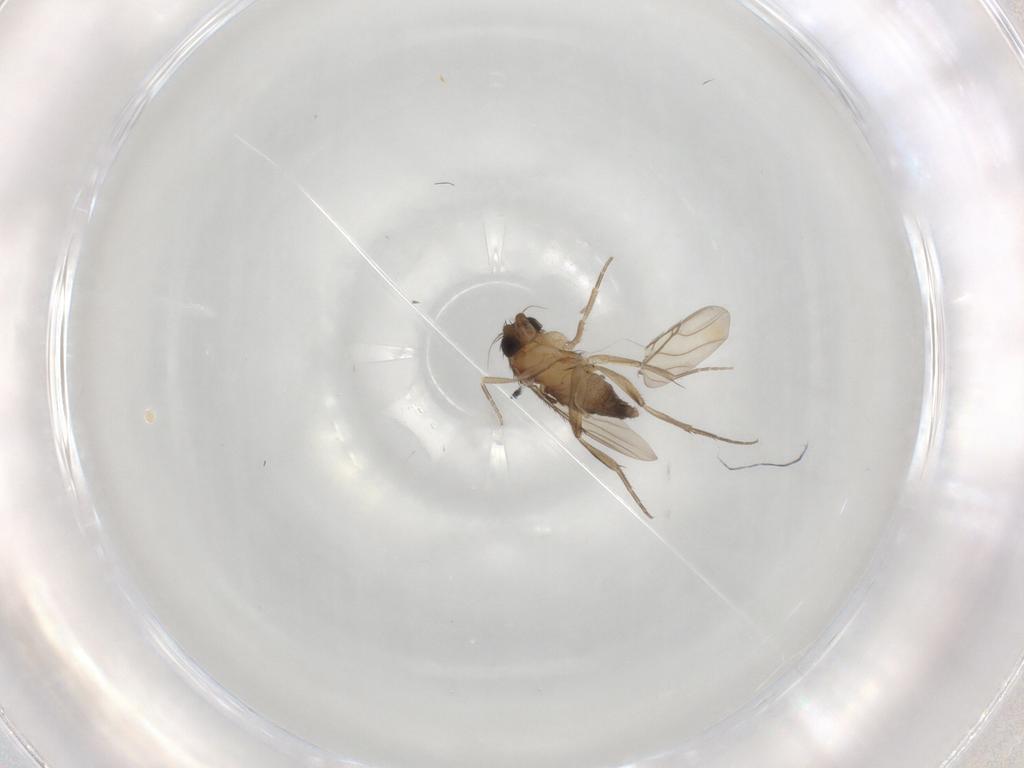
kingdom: Animalia
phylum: Arthropoda
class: Insecta
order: Diptera
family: Phoridae
